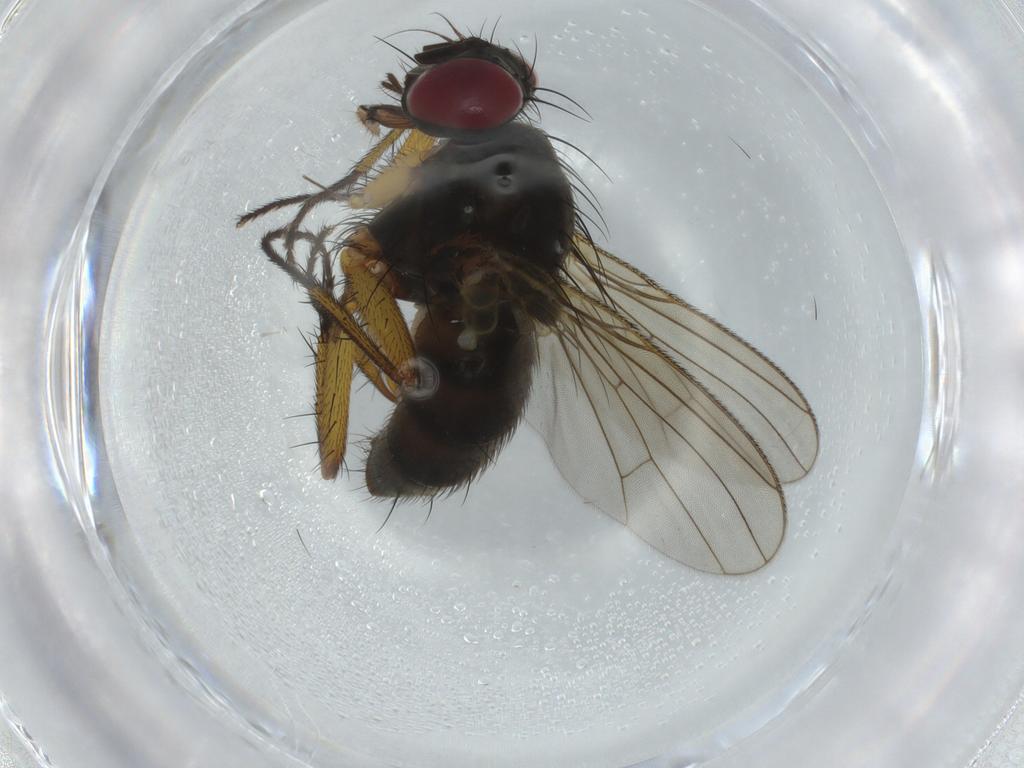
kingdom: Animalia
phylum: Arthropoda
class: Insecta
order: Diptera
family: Muscidae
